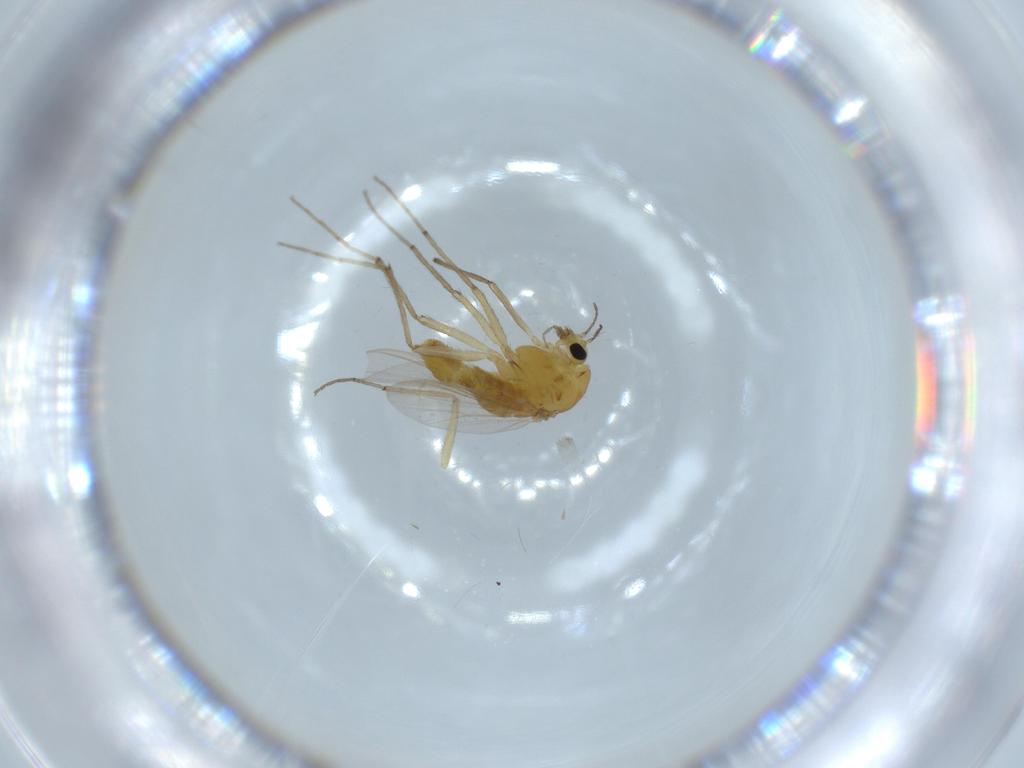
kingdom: Animalia
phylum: Arthropoda
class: Insecta
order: Diptera
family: Chironomidae
